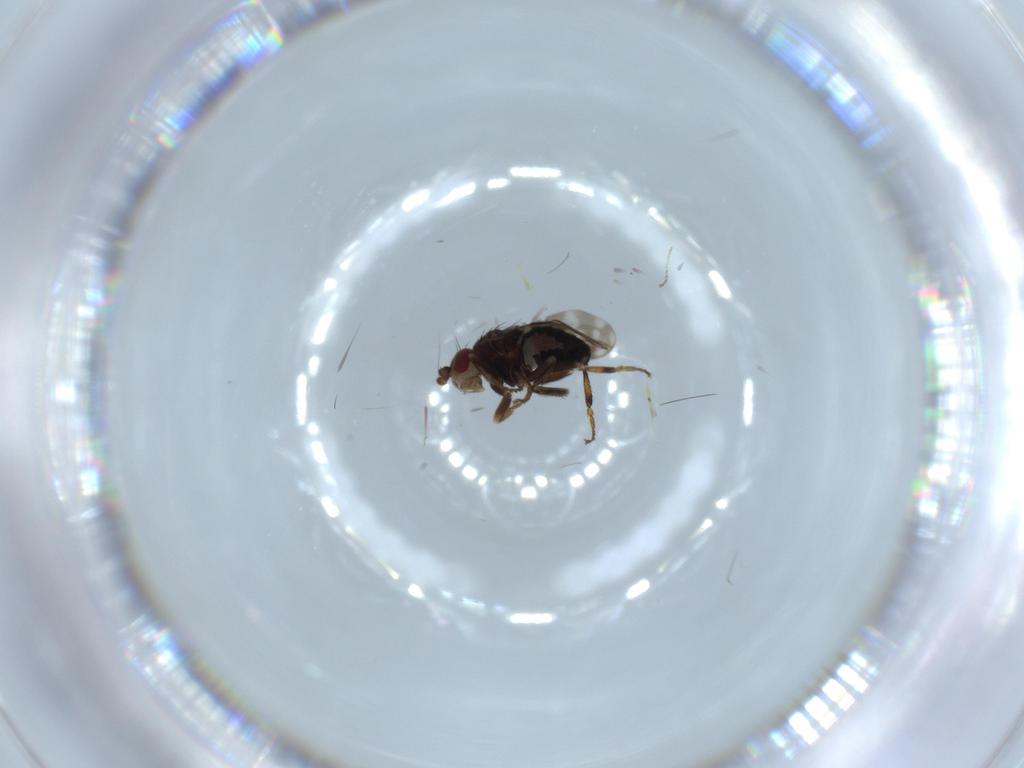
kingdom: Animalia
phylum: Arthropoda
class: Insecta
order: Diptera
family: Sphaeroceridae
